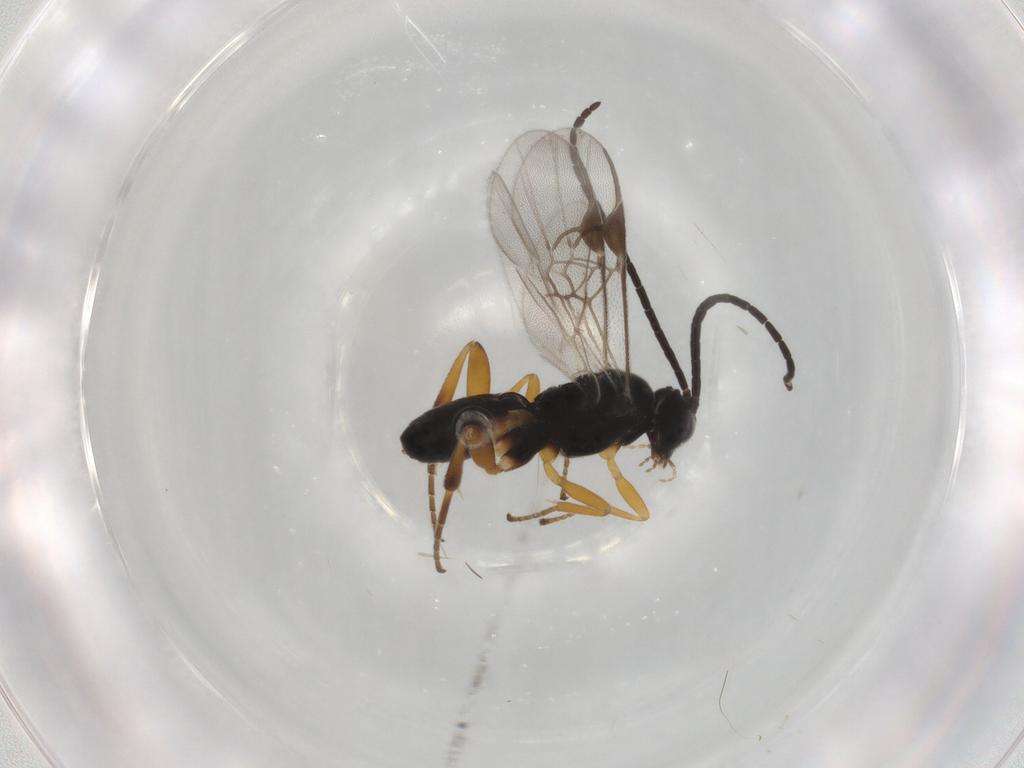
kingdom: Animalia
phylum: Arthropoda
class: Insecta
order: Hymenoptera
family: Braconidae
